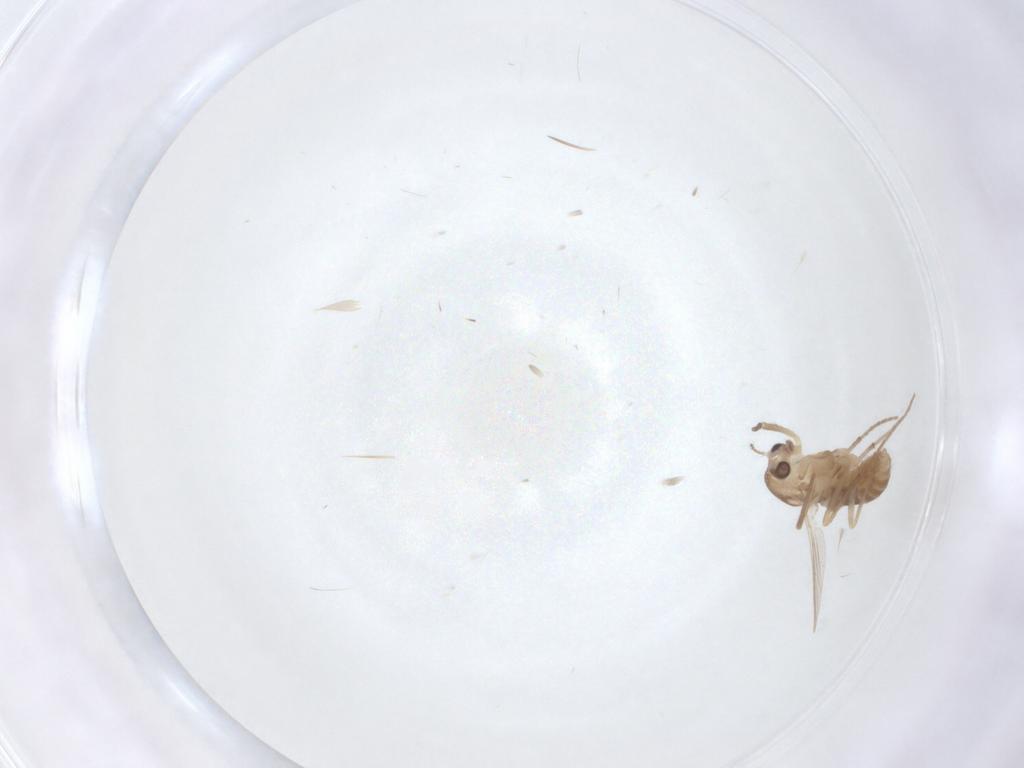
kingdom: Animalia
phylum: Arthropoda
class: Insecta
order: Diptera
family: Chironomidae
